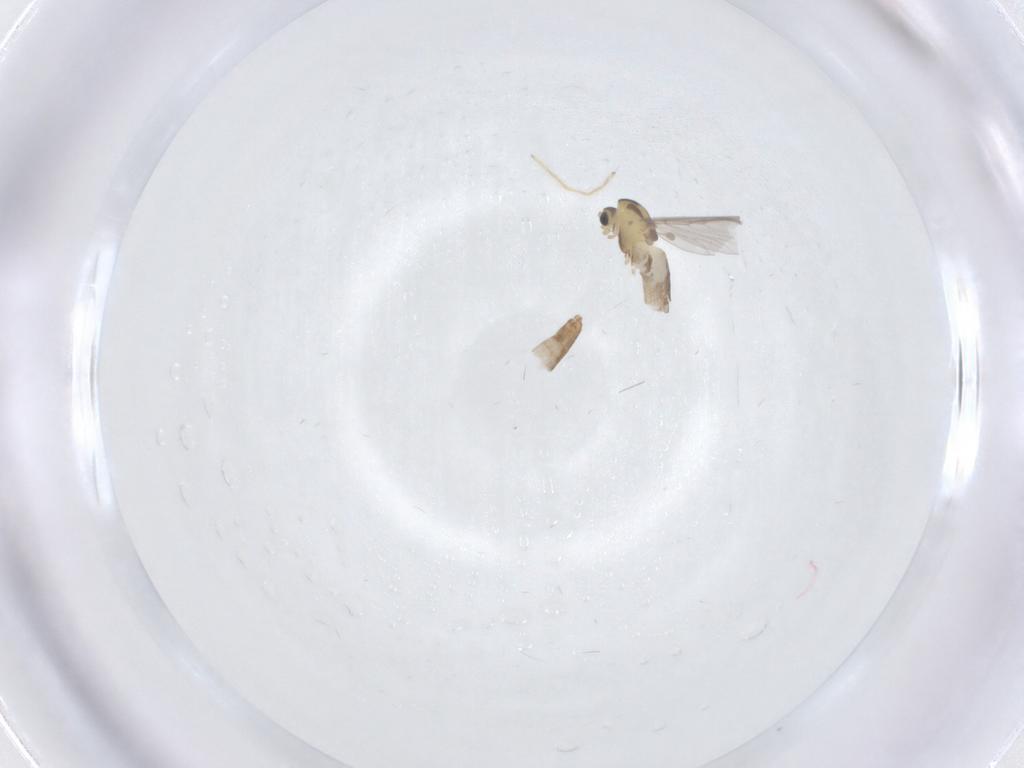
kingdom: Animalia
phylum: Arthropoda
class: Insecta
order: Diptera
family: Chironomidae
